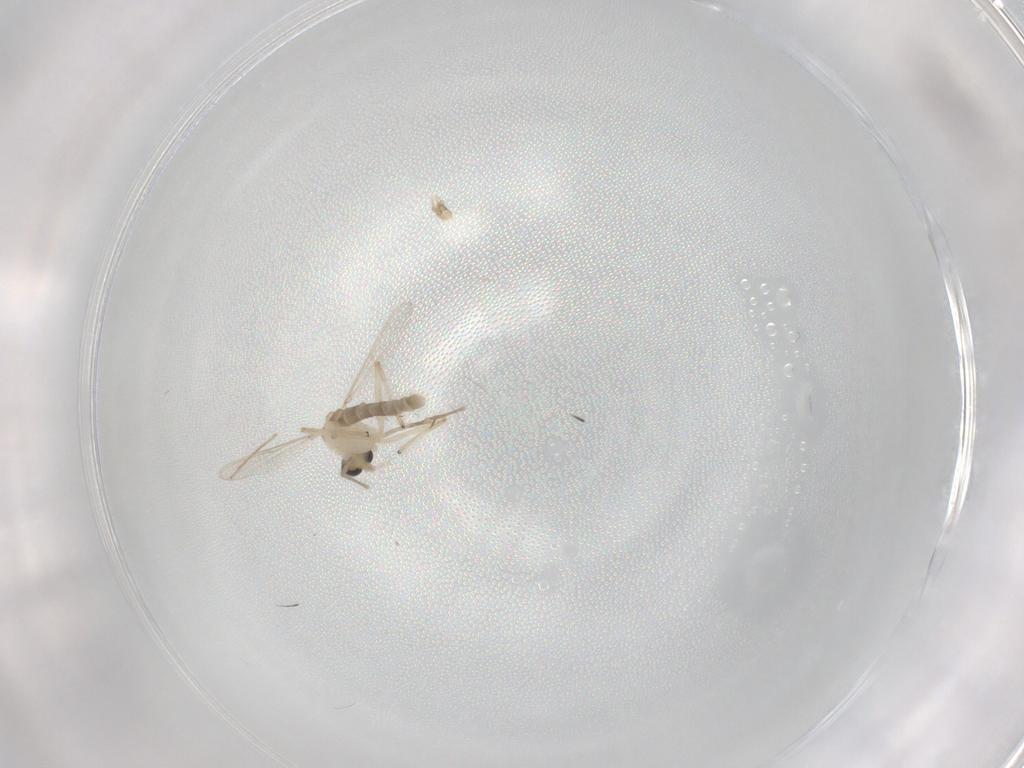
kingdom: Animalia
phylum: Arthropoda
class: Insecta
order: Diptera
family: Chironomidae
